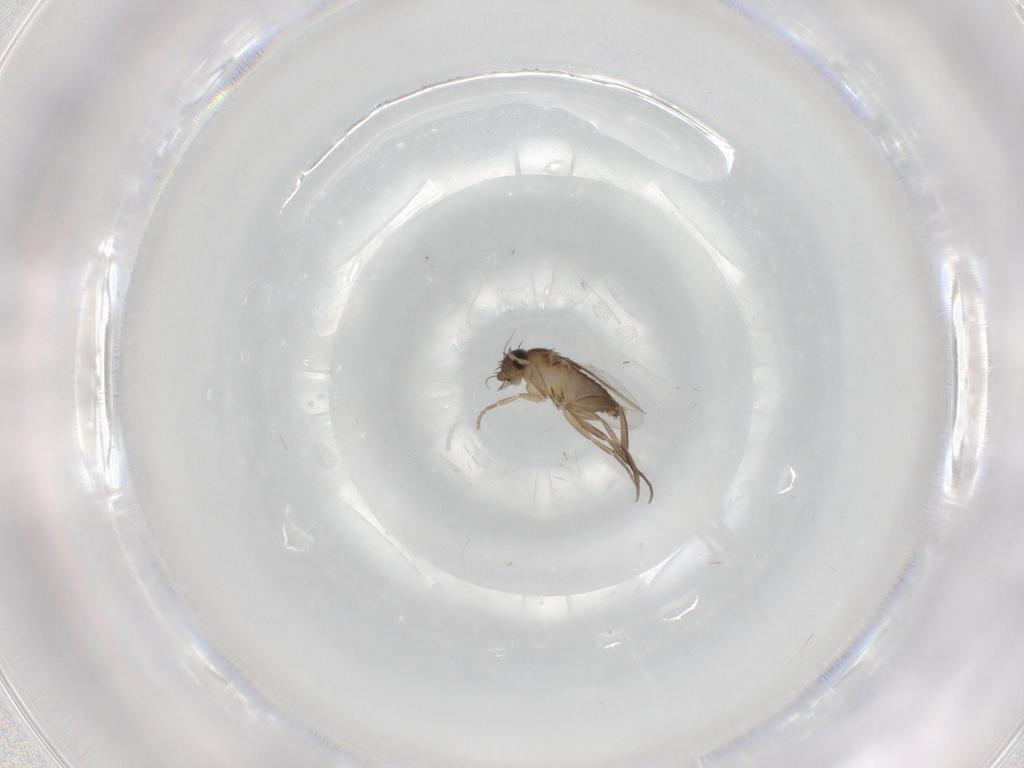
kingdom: Animalia
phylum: Arthropoda
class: Insecta
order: Diptera
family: Phoridae
